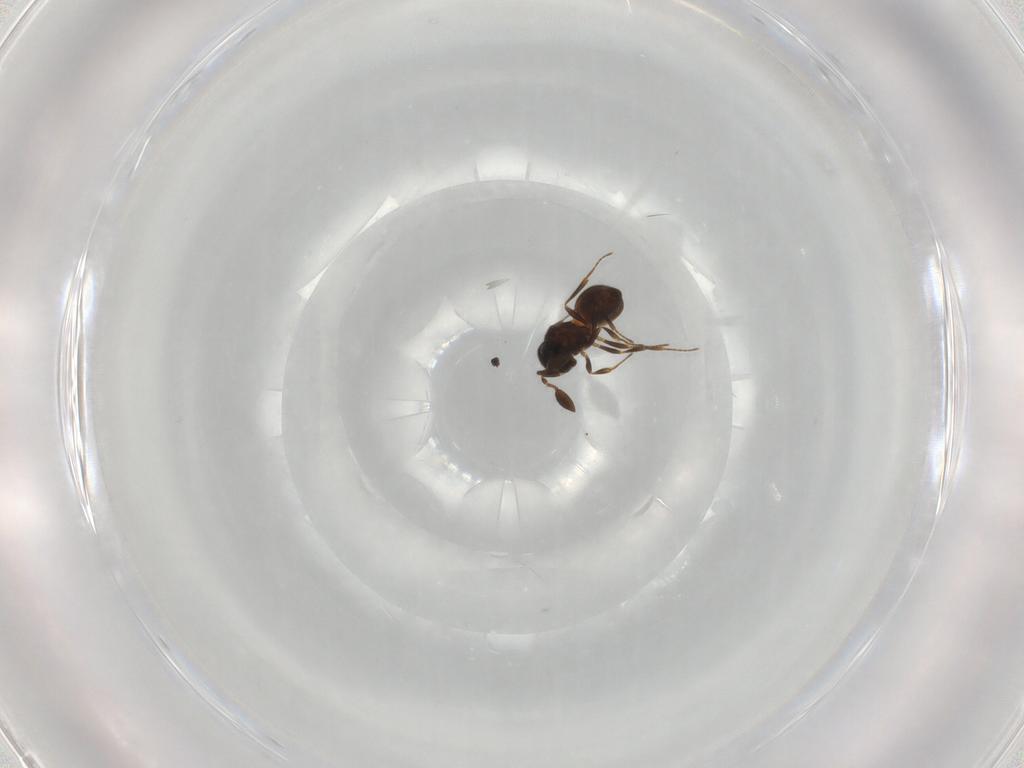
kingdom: Animalia
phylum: Arthropoda
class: Insecta
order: Hymenoptera
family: Scelionidae
